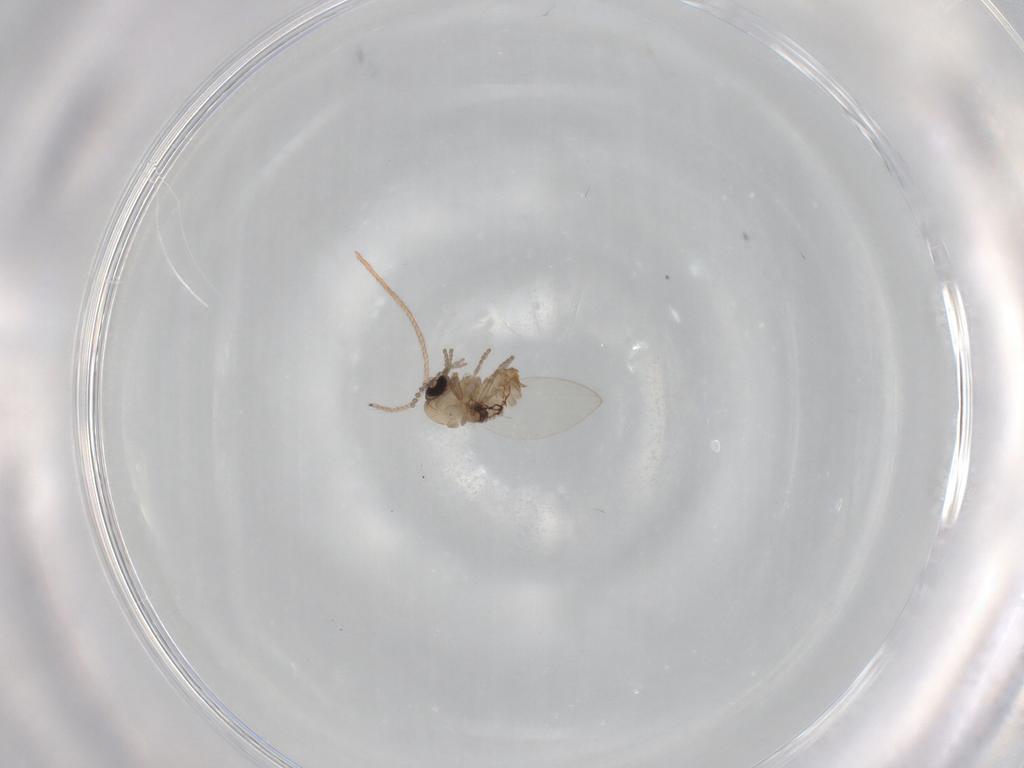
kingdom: Animalia
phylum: Arthropoda
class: Insecta
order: Diptera
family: Psychodidae
